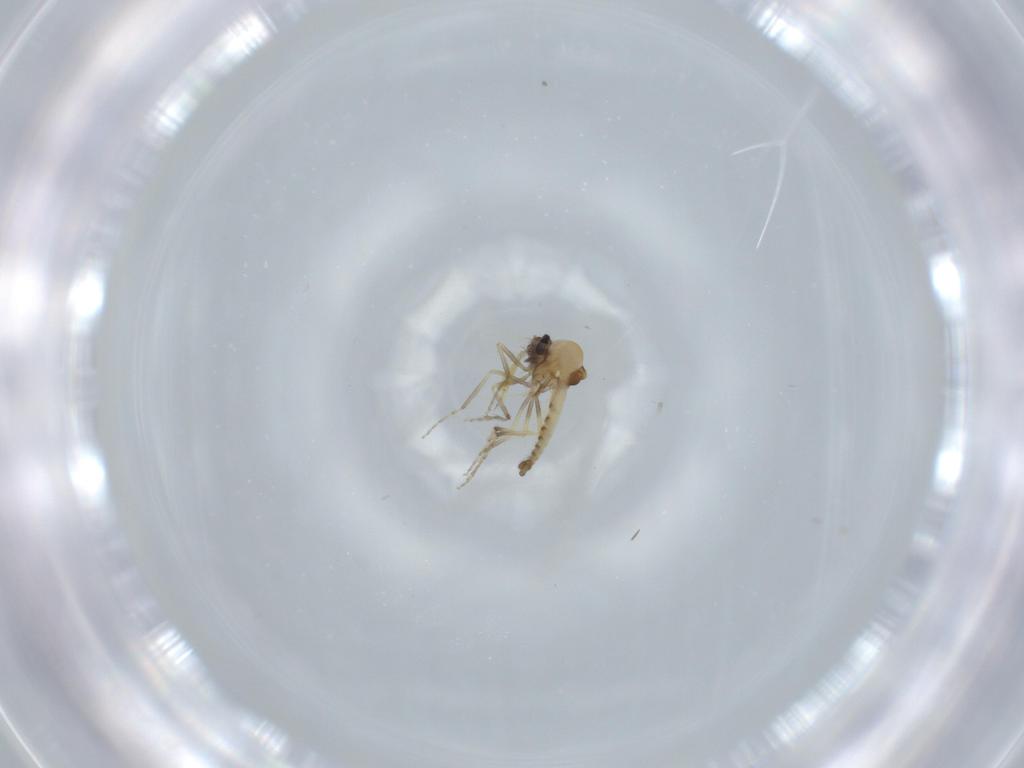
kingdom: Animalia
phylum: Arthropoda
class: Insecta
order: Diptera
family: Ceratopogonidae
